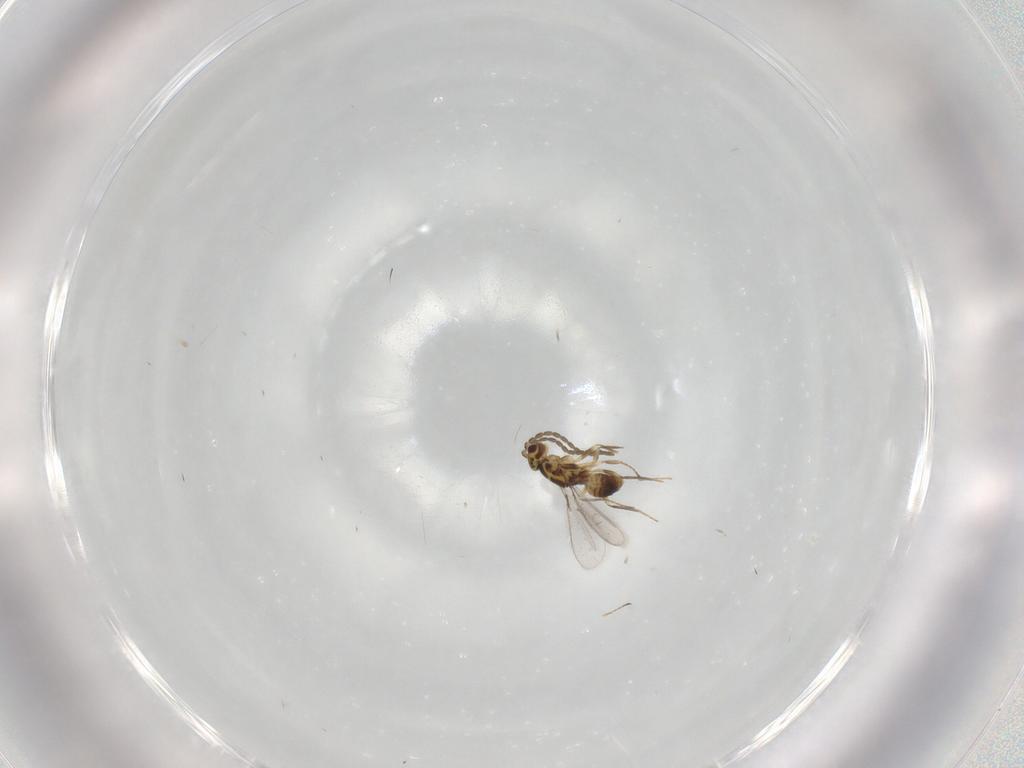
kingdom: Animalia
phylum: Arthropoda
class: Insecta
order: Hymenoptera
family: Mymaridae
